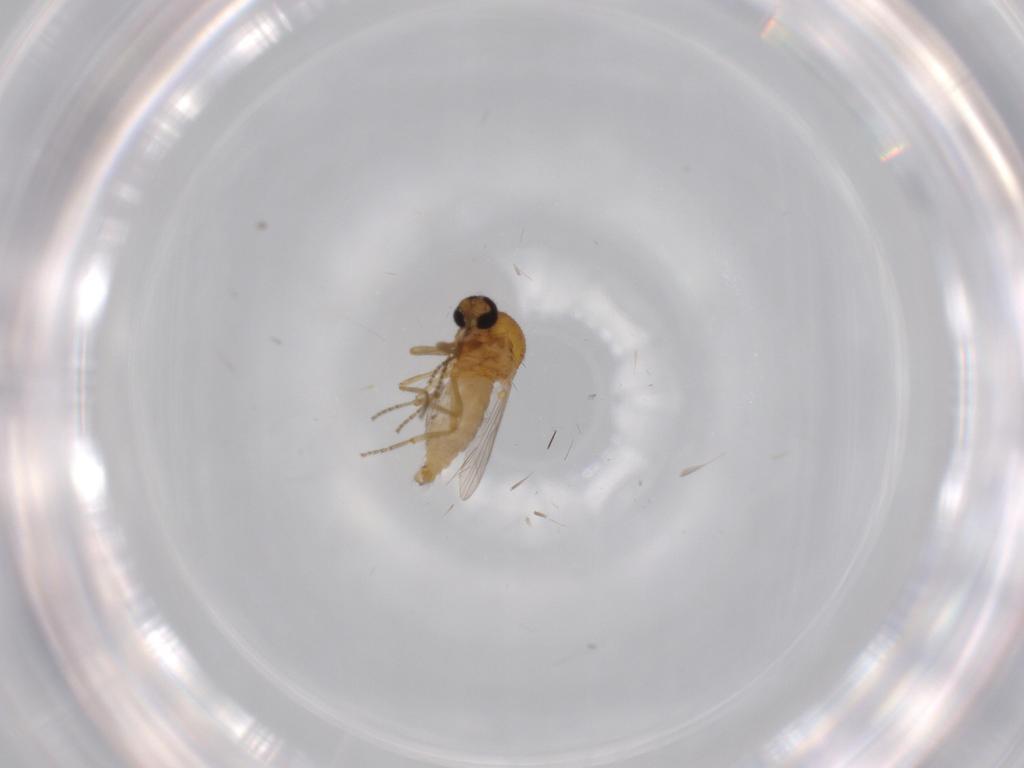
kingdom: Animalia
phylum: Arthropoda
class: Insecta
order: Diptera
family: Ceratopogonidae
